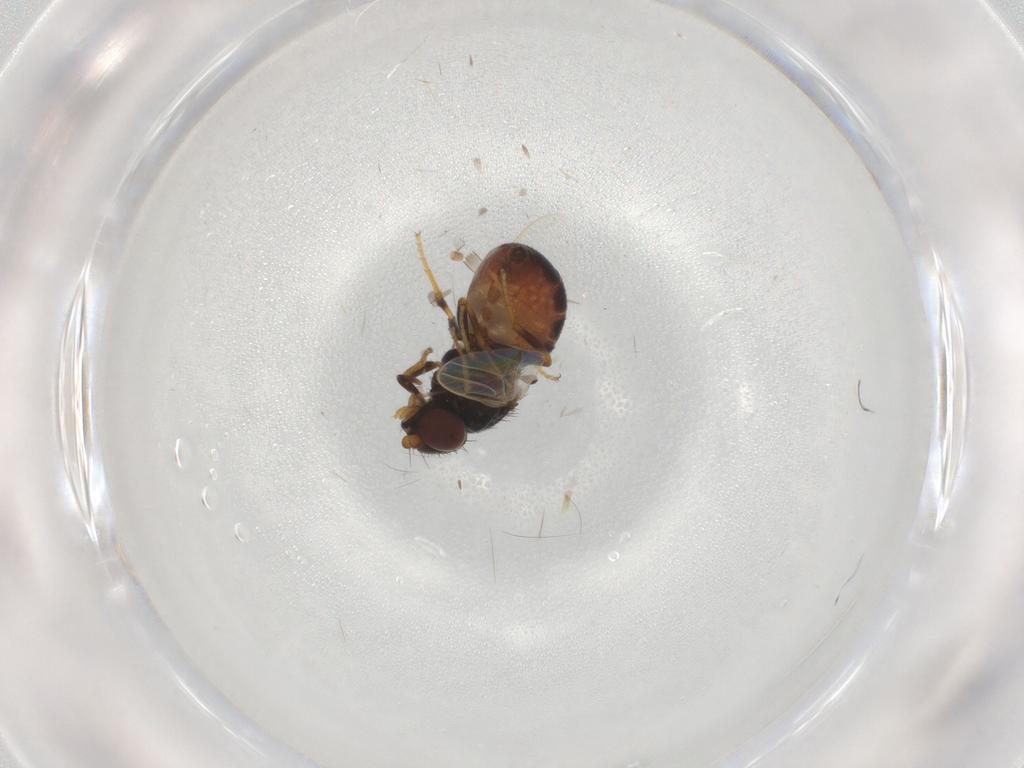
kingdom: Animalia
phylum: Arthropoda
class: Insecta
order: Diptera
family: Chloropidae
